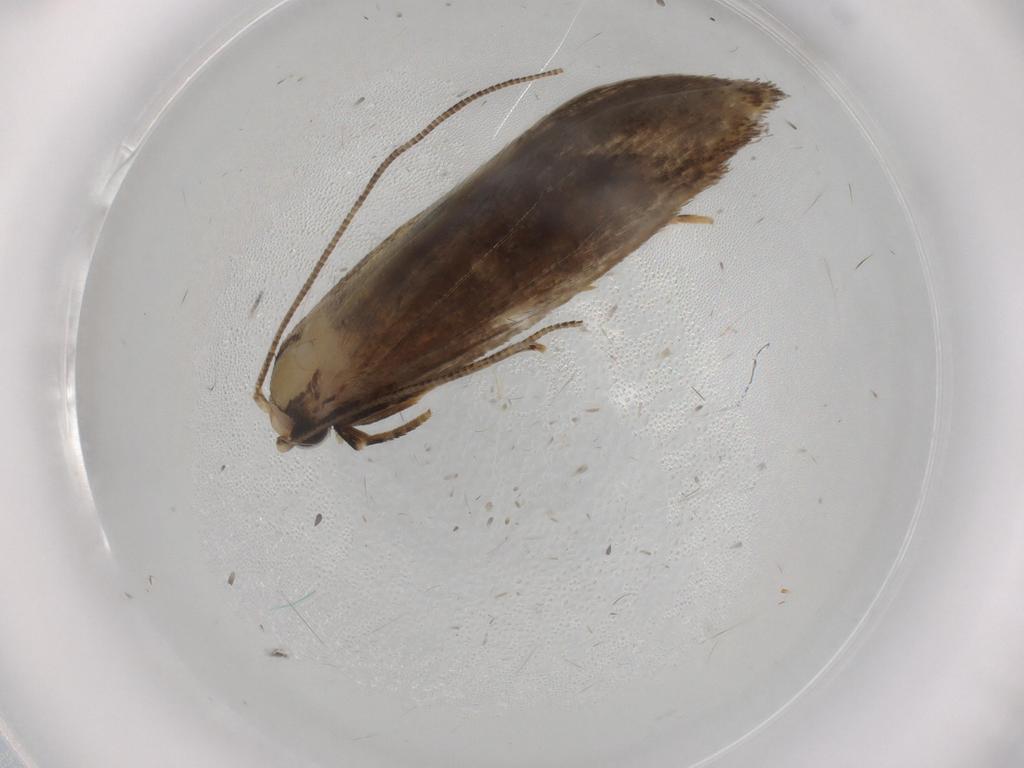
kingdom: Animalia
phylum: Arthropoda
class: Insecta
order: Lepidoptera
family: Tineidae
